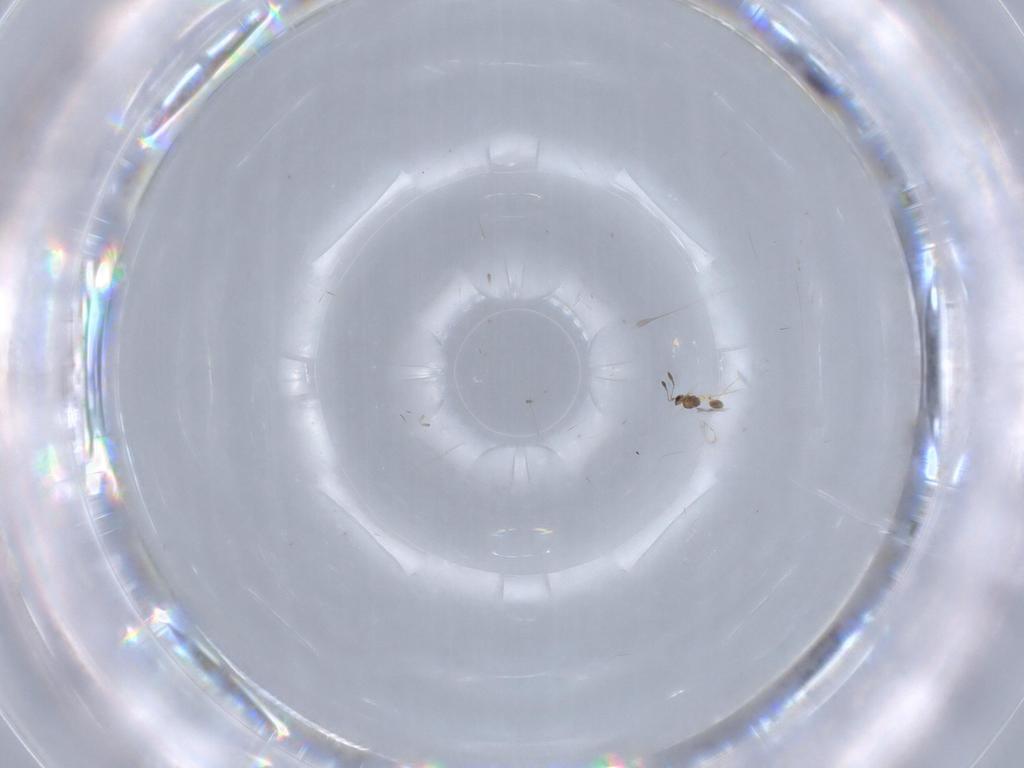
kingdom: Animalia
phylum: Arthropoda
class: Insecta
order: Hymenoptera
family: Mymarommatidae
